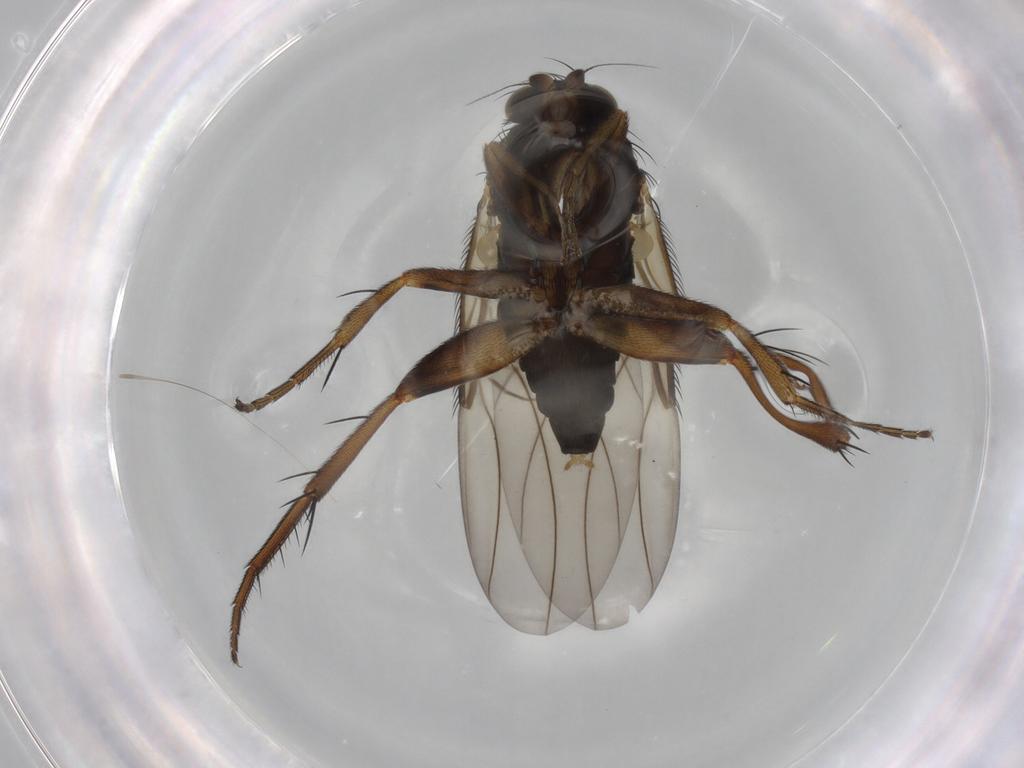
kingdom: Animalia
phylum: Arthropoda
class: Insecta
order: Diptera
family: Phoridae
